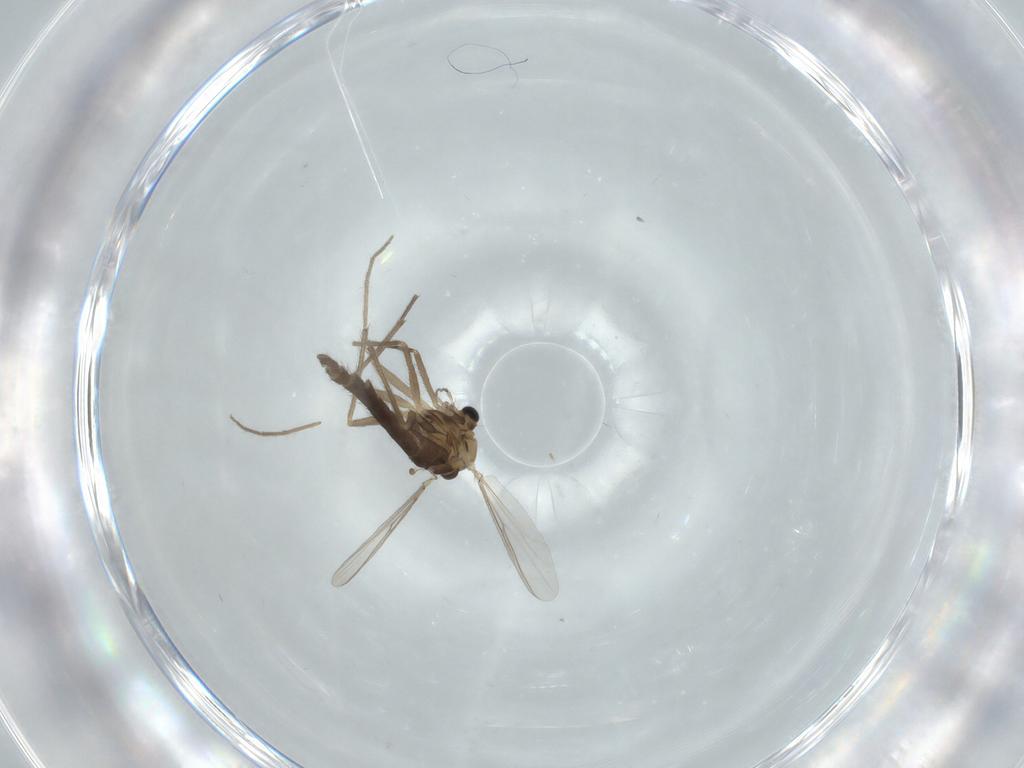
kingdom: Animalia
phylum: Arthropoda
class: Insecta
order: Diptera
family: Chironomidae
